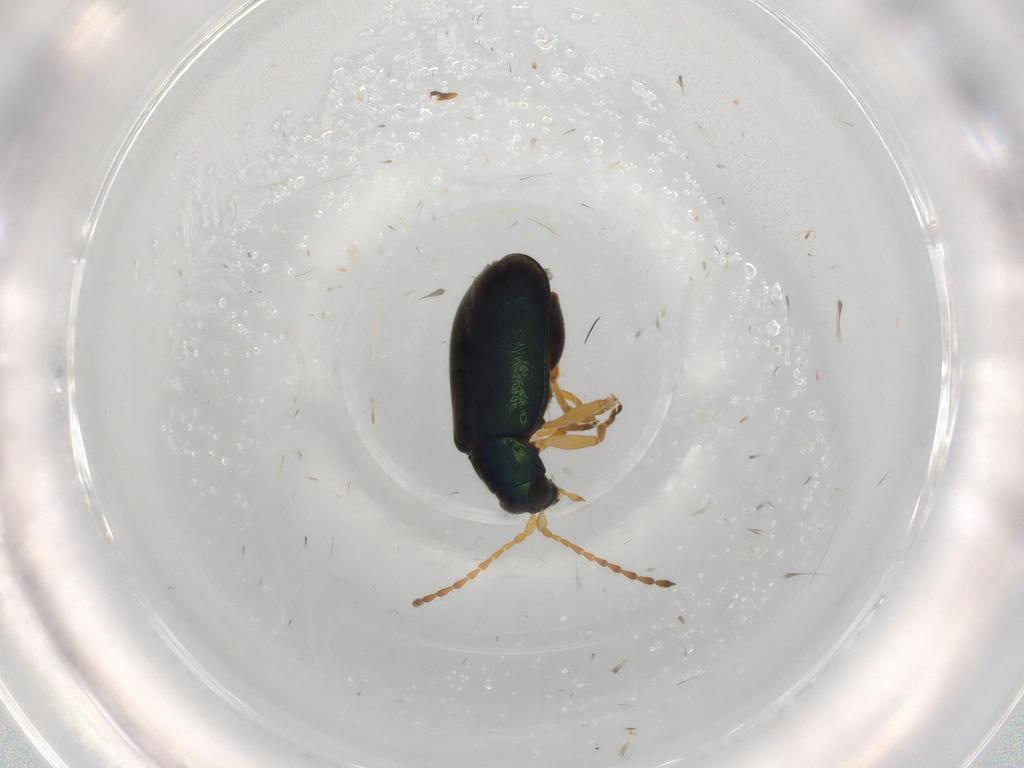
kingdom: Animalia
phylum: Arthropoda
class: Insecta
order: Coleoptera
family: Chrysomelidae
